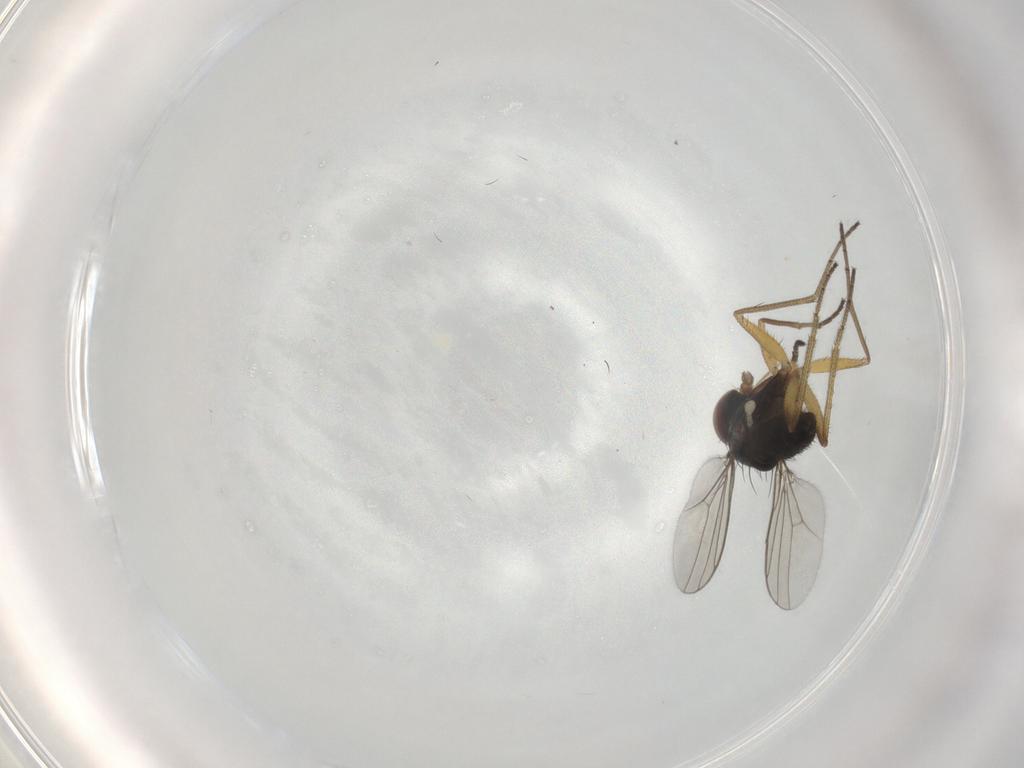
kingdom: Animalia
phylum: Arthropoda
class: Insecta
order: Diptera
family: Dolichopodidae
